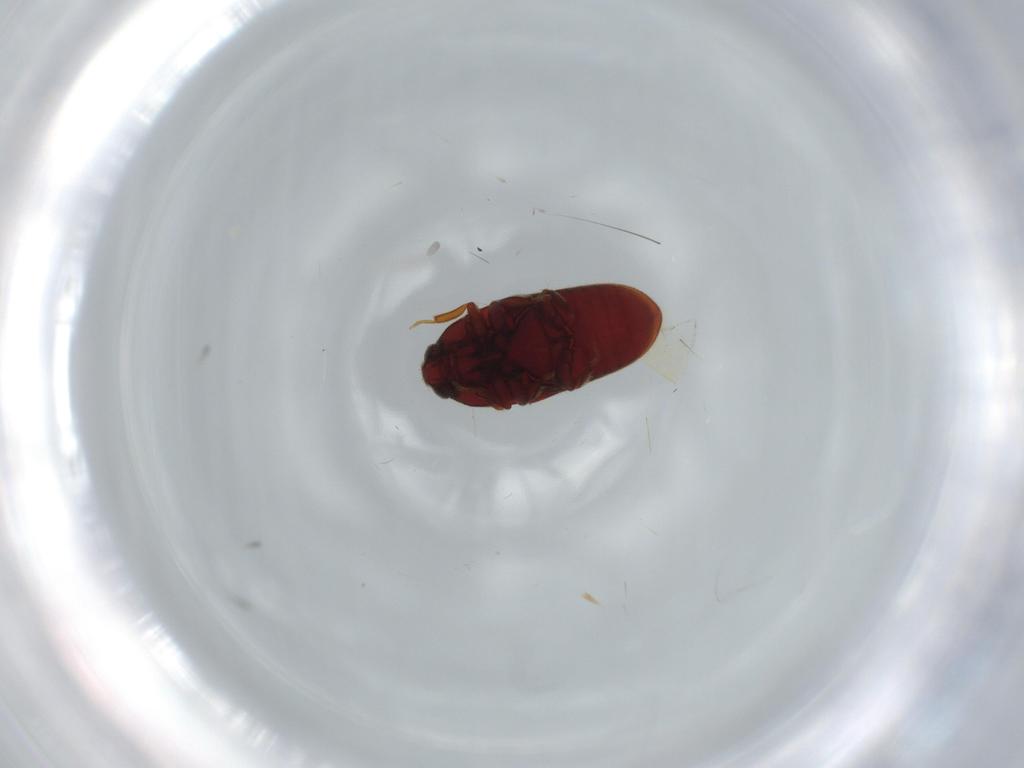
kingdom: Animalia
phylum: Arthropoda
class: Insecta
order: Coleoptera
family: Throscidae
